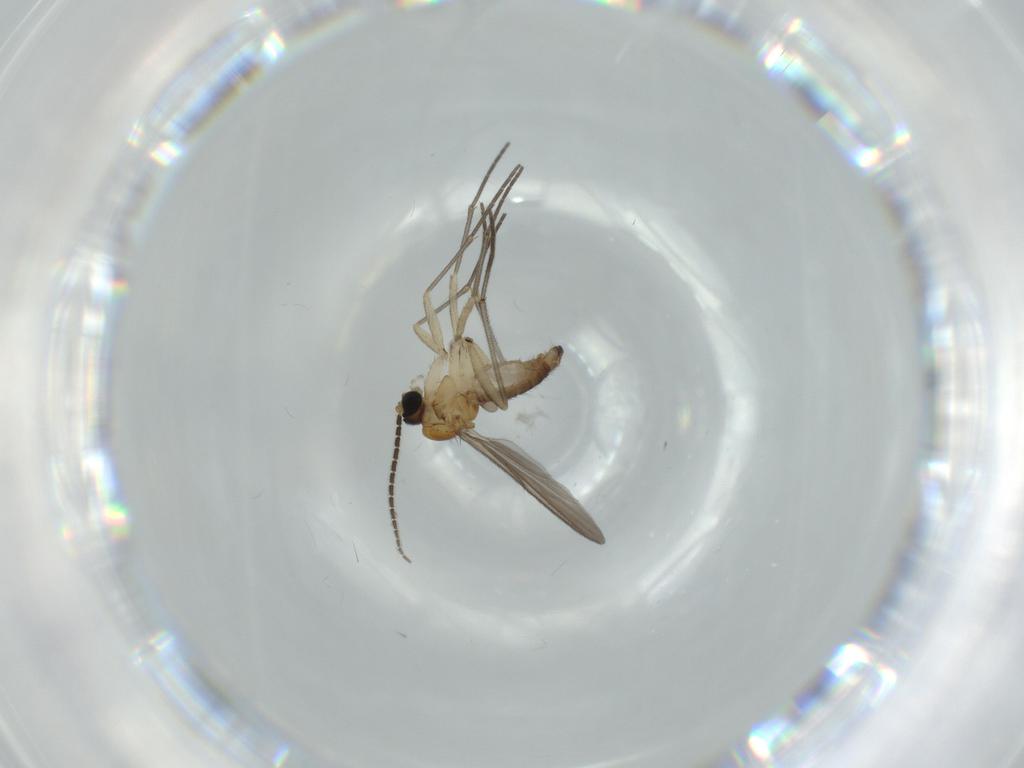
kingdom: Animalia
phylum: Arthropoda
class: Insecta
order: Diptera
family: Sciaridae
